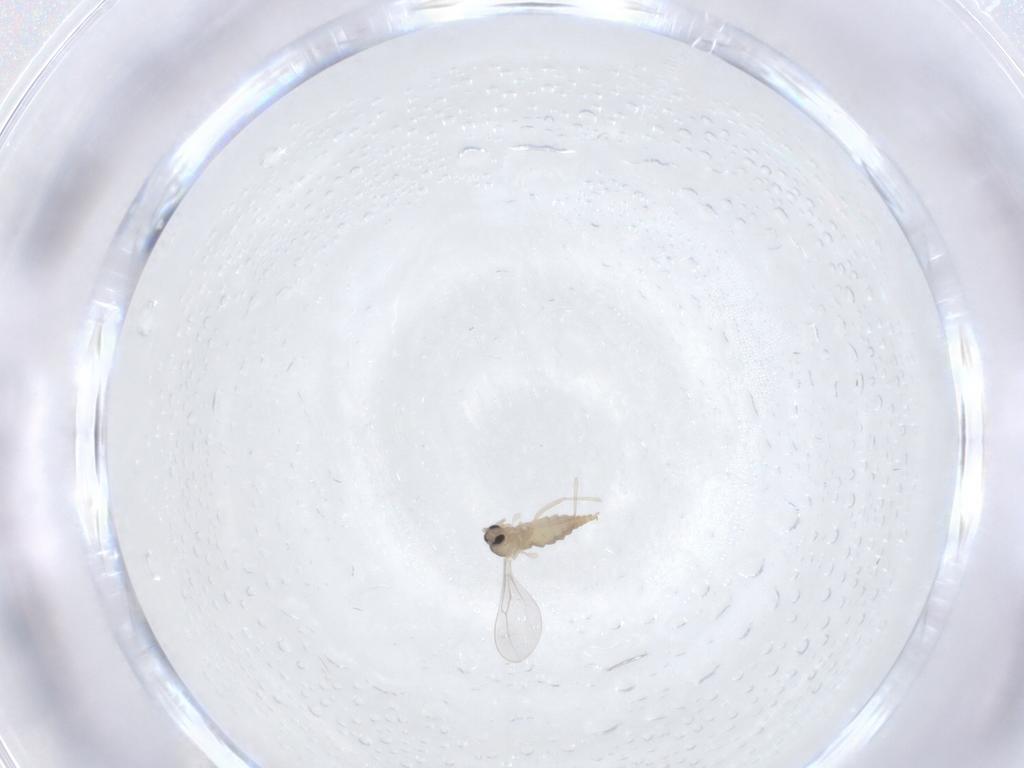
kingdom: Animalia
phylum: Arthropoda
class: Insecta
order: Diptera
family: Cecidomyiidae
